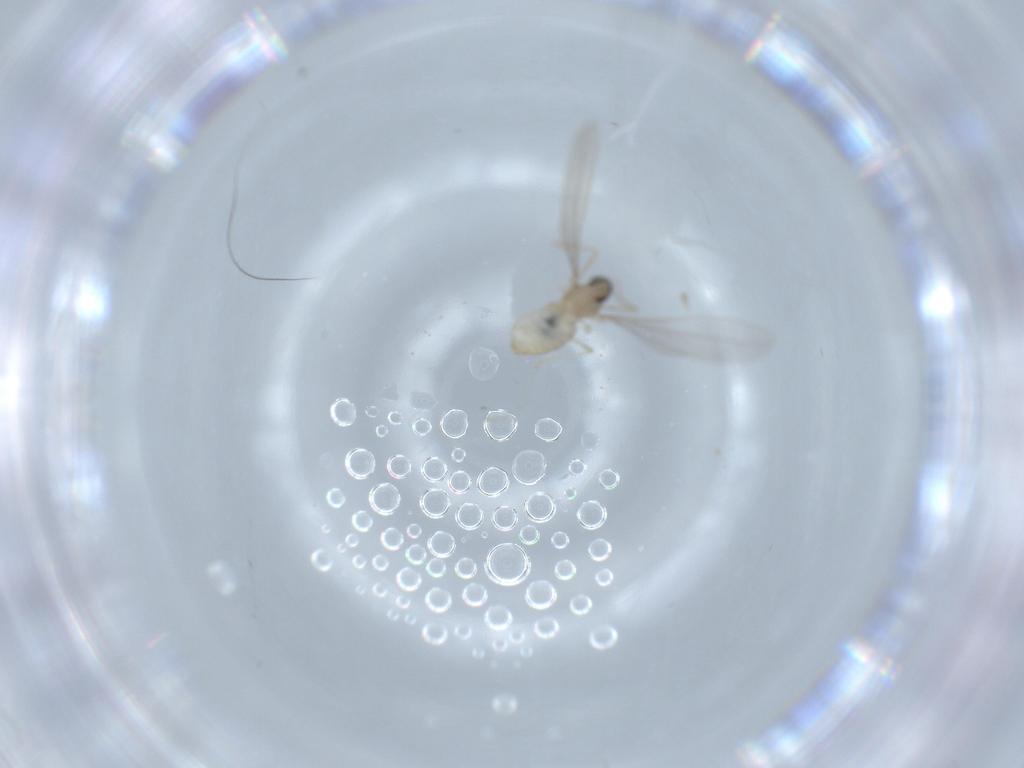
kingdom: Animalia
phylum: Arthropoda
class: Insecta
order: Diptera
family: Cecidomyiidae
